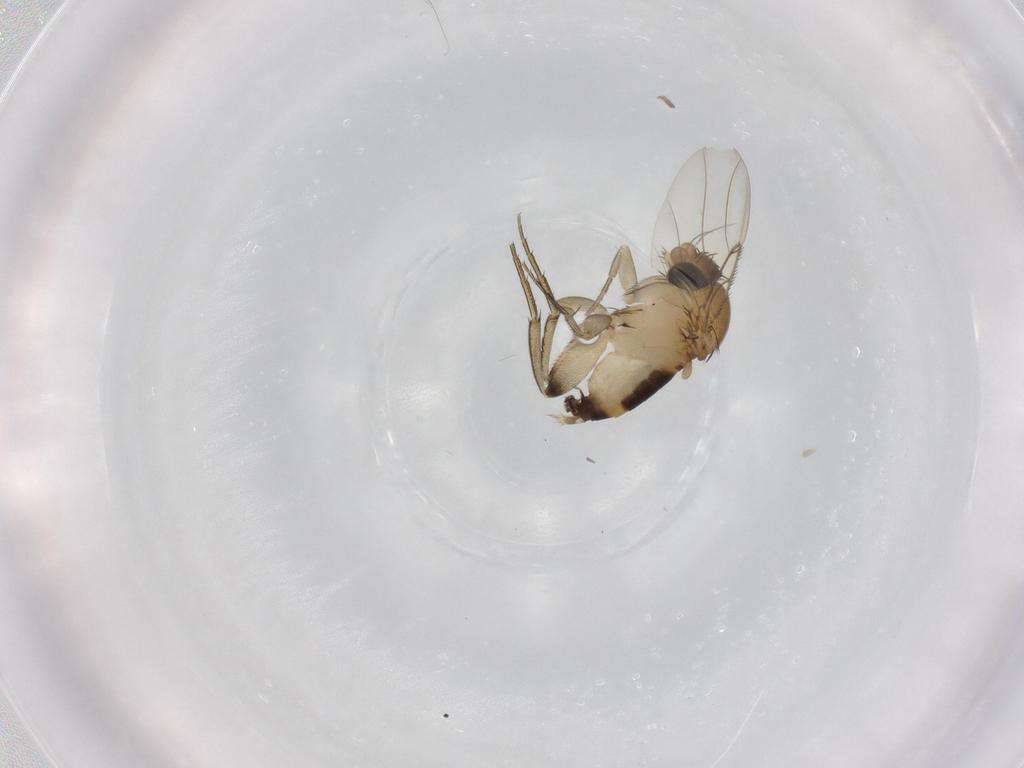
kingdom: Animalia
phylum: Arthropoda
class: Insecta
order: Diptera
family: Phoridae
